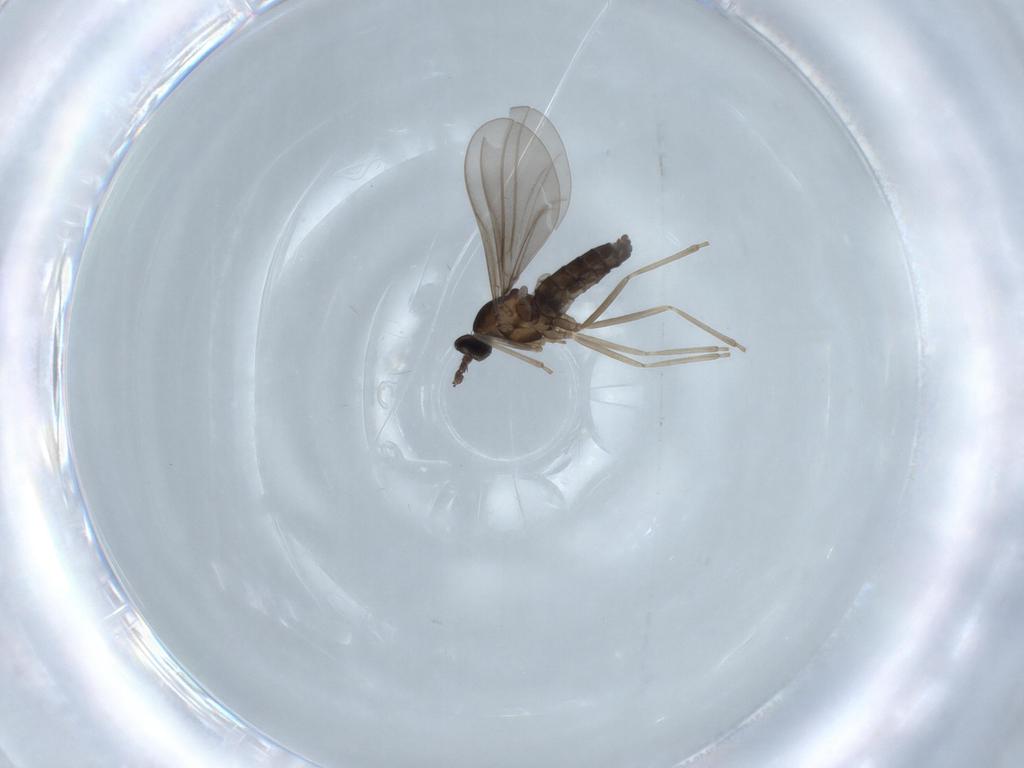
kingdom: Animalia
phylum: Arthropoda
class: Insecta
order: Diptera
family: Cecidomyiidae
